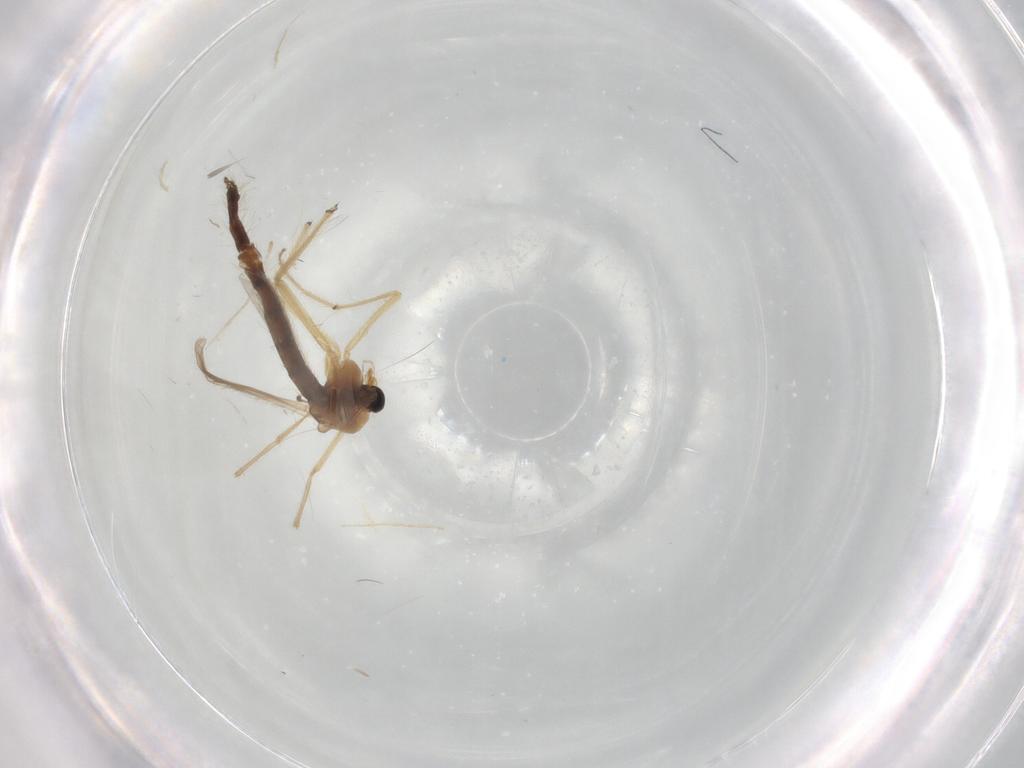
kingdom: Animalia
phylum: Arthropoda
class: Insecta
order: Diptera
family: Chironomidae
